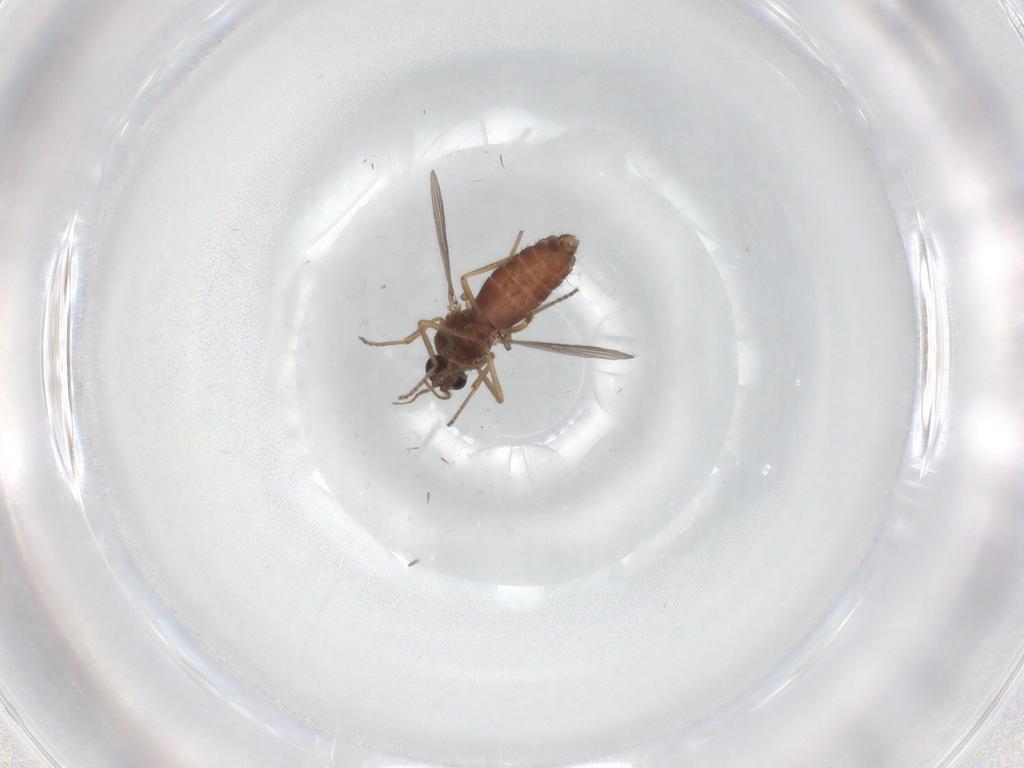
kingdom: Animalia
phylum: Arthropoda
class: Insecta
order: Diptera
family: Ceratopogonidae
